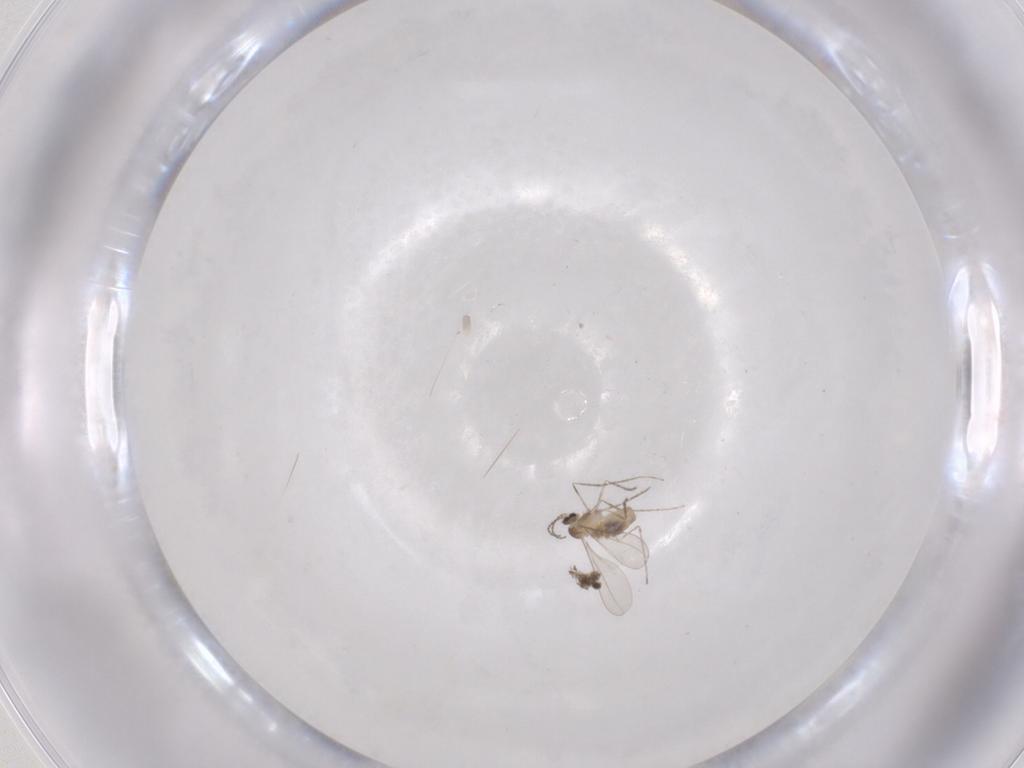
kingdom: Animalia
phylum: Arthropoda
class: Insecta
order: Diptera
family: Cecidomyiidae
